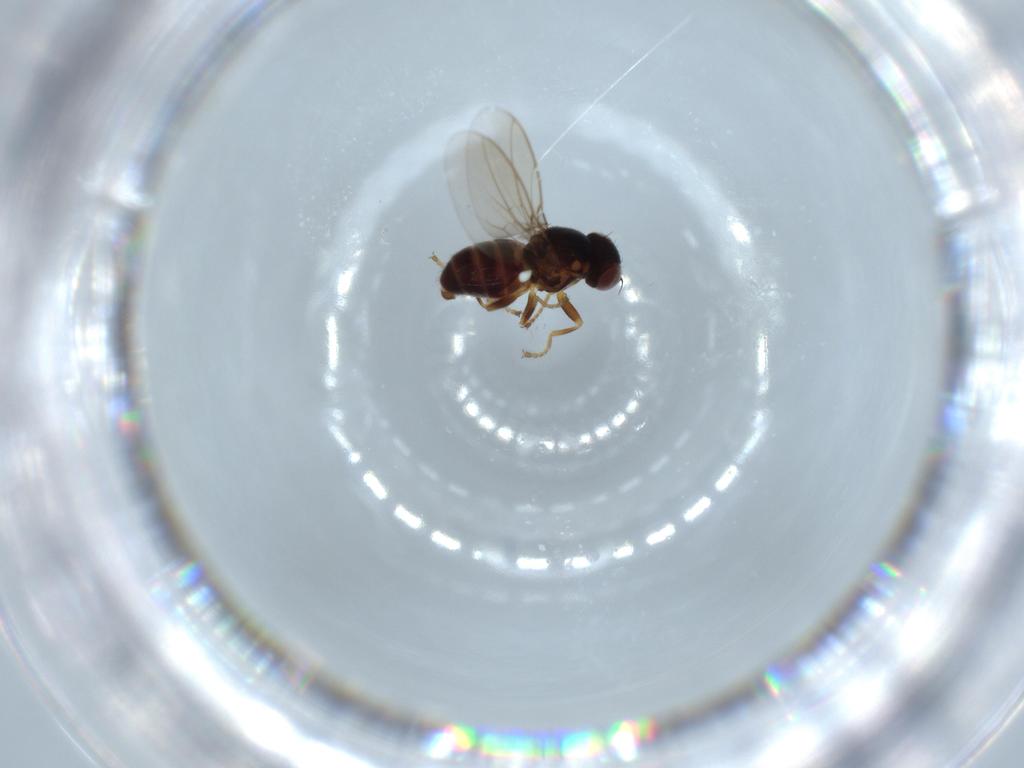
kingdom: Animalia
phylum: Arthropoda
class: Insecta
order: Diptera
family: Chloropidae
